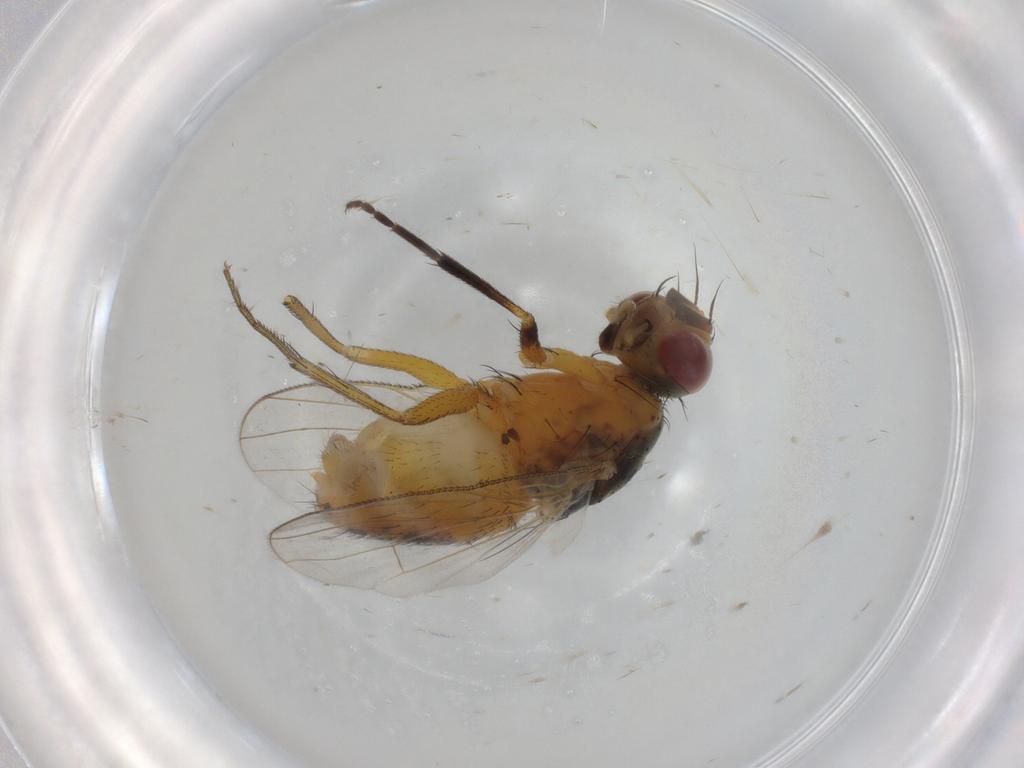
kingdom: Animalia
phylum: Arthropoda
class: Insecta
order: Diptera
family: Muscidae
